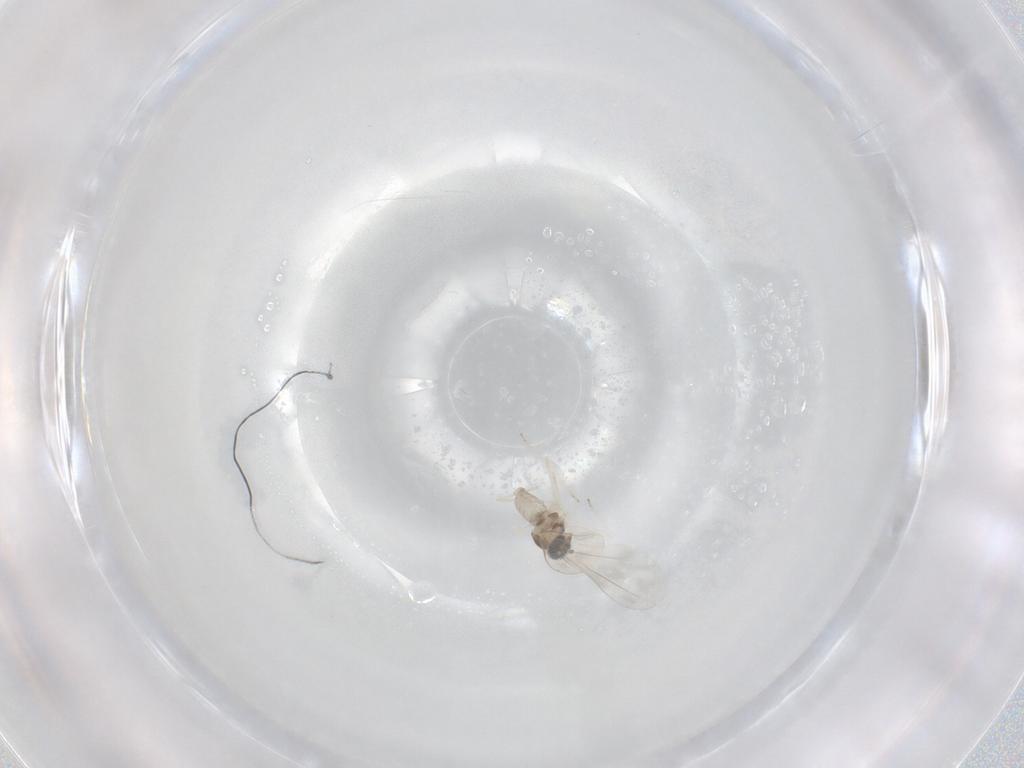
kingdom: Animalia
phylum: Arthropoda
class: Insecta
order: Diptera
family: Cecidomyiidae
